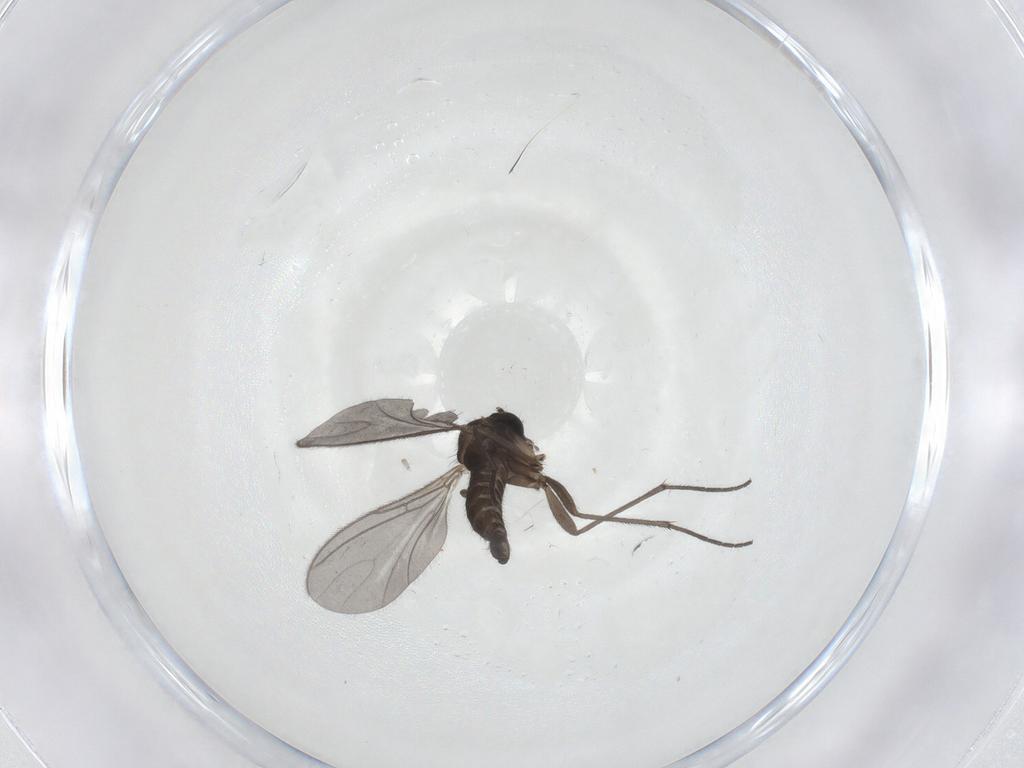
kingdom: Animalia
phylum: Arthropoda
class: Insecta
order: Diptera
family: Sciaridae
